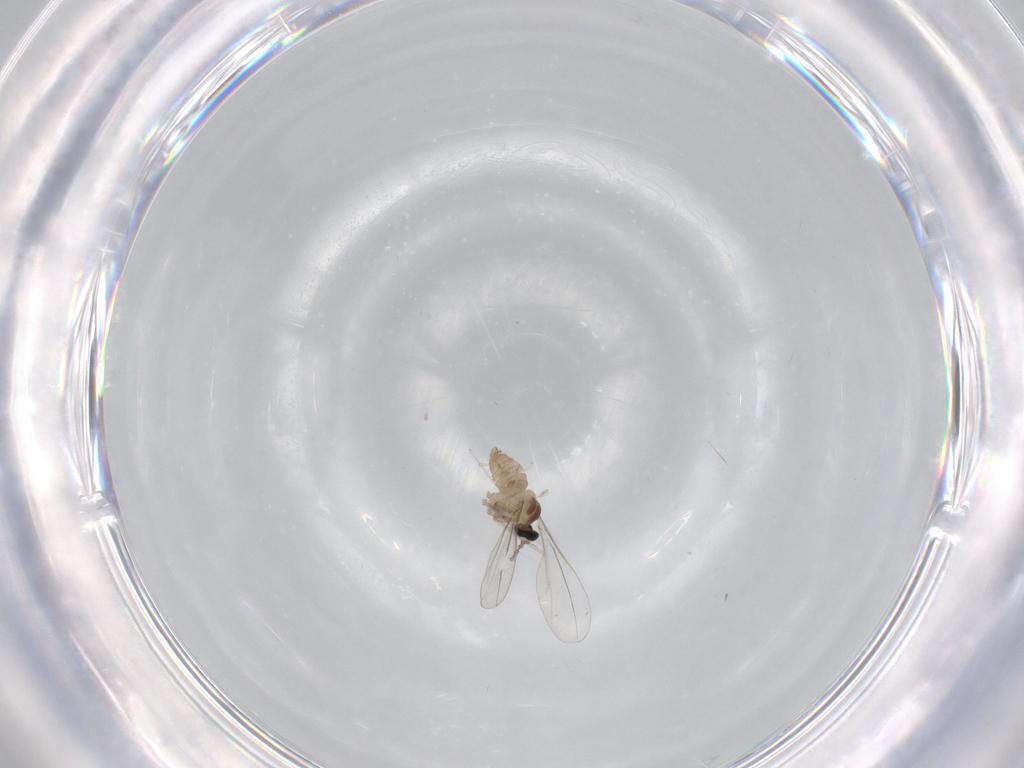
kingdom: Animalia
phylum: Arthropoda
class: Insecta
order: Diptera
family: Cecidomyiidae
